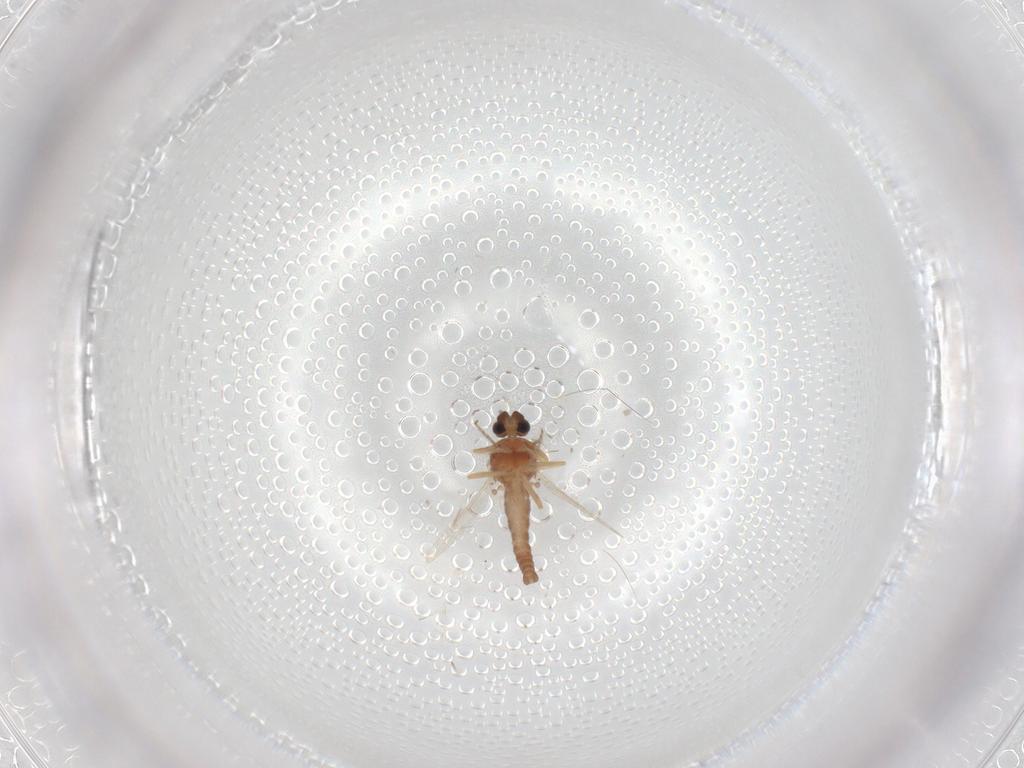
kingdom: Animalia
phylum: Arthropoda
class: Insecta
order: Diptera
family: Ceratopogonidae
